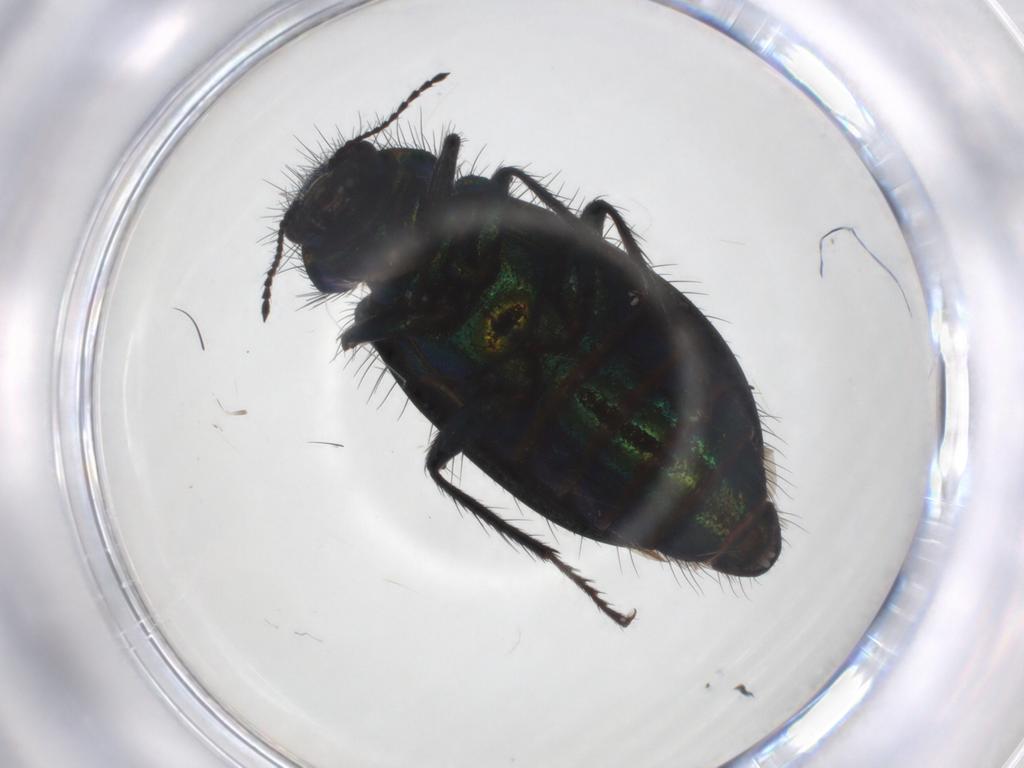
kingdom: Animalia
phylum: Arthropoda
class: Insecta
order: Coleoptera
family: Melyridae
